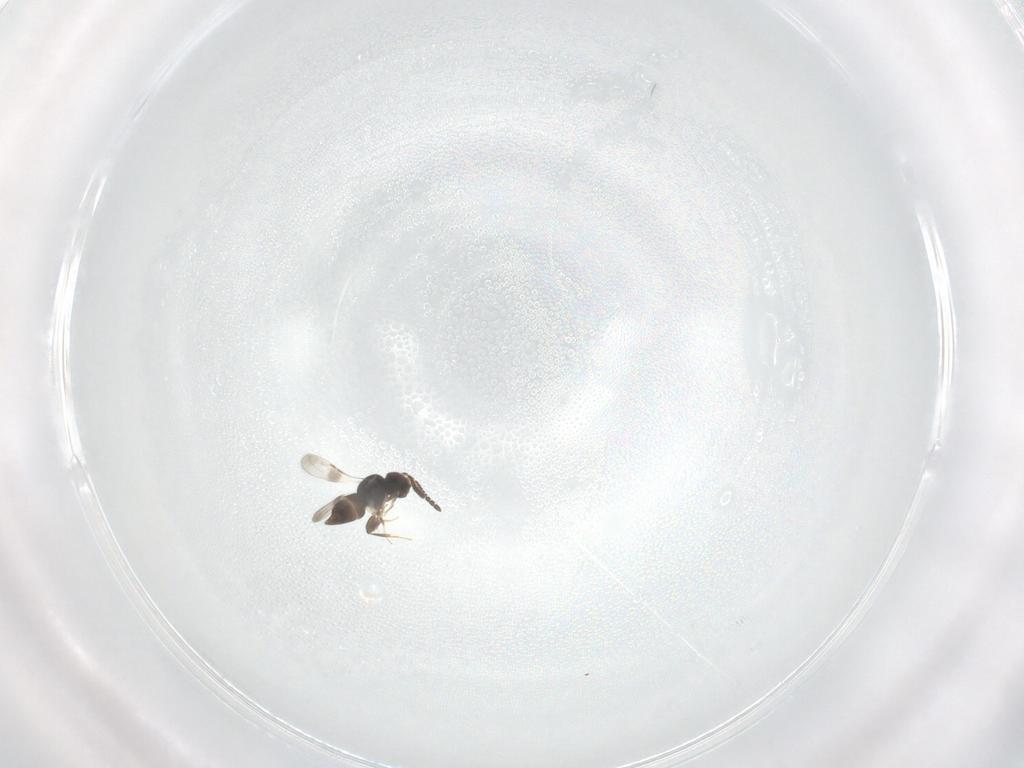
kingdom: Animalia
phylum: Arthropoda
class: Insecta
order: Hymenoptera
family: Ceraphronidae
